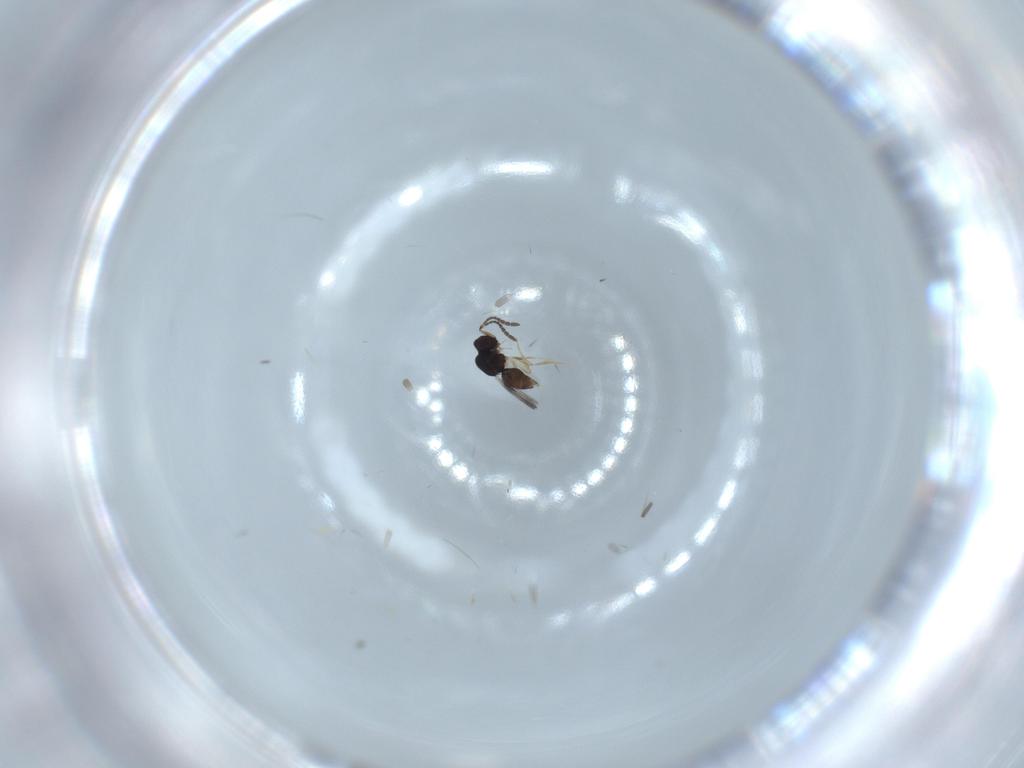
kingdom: Animalia
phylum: Arthropoda
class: Insecta
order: Hymenoptera
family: Ceraphronidae
